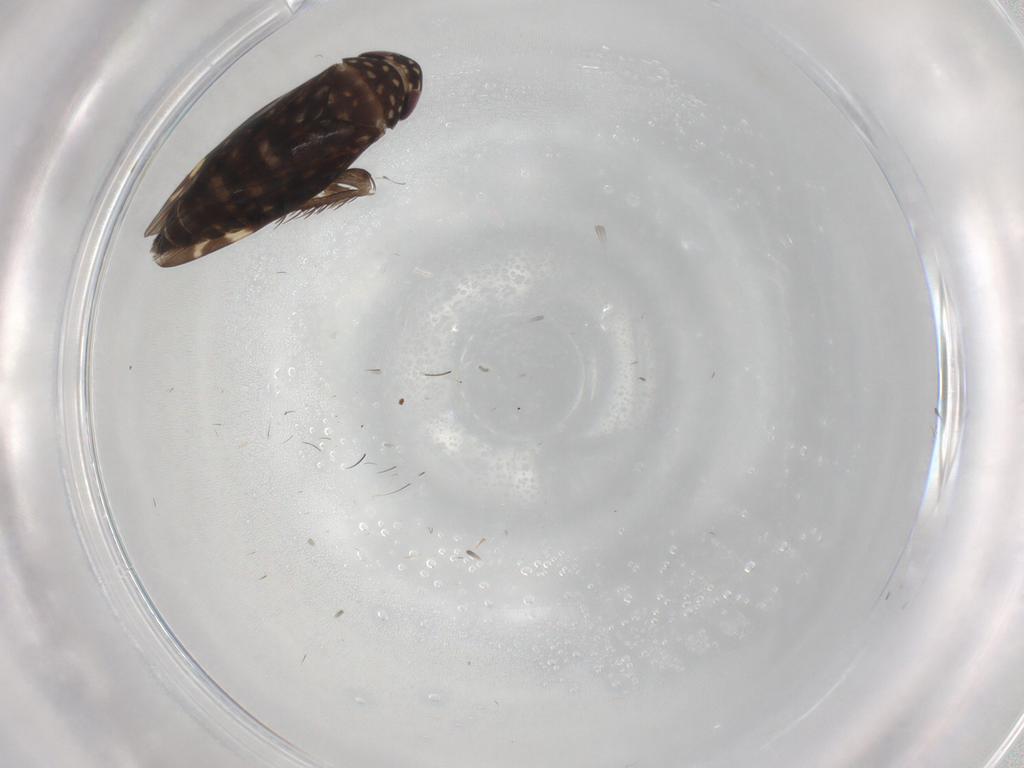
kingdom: Animalia
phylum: Arthropoda
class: Insecta
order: Hemiptera
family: Cicadellidae
